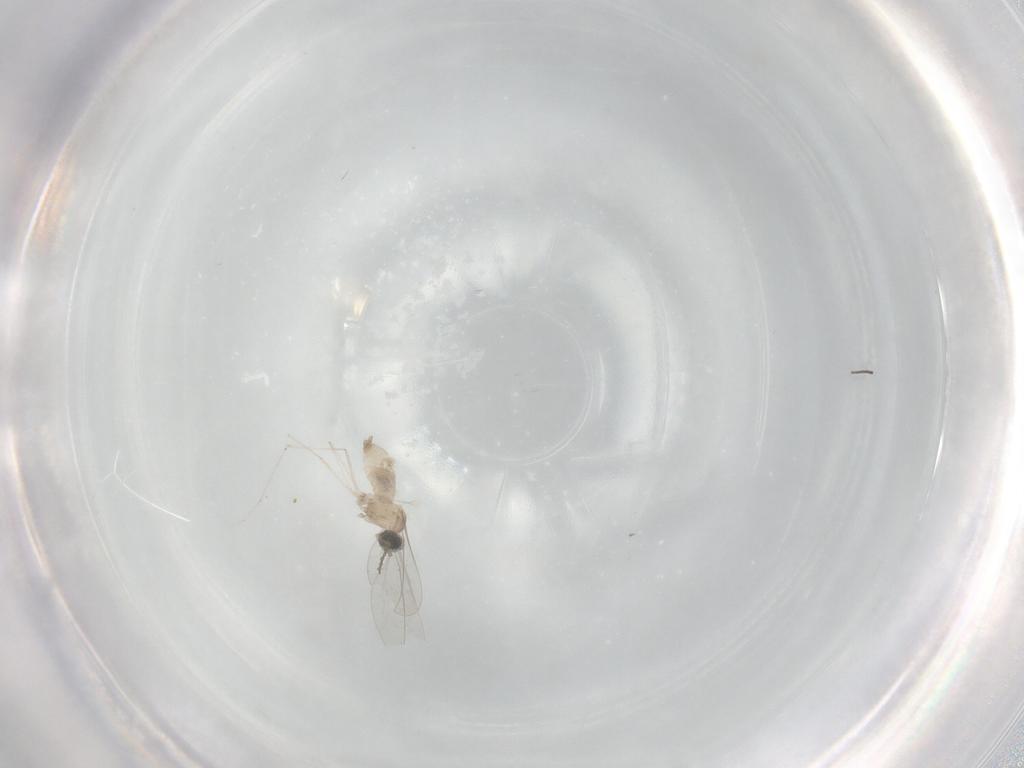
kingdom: Animalia
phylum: Arthropoda
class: Insecta
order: Diptera
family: Cecidomyiidae
